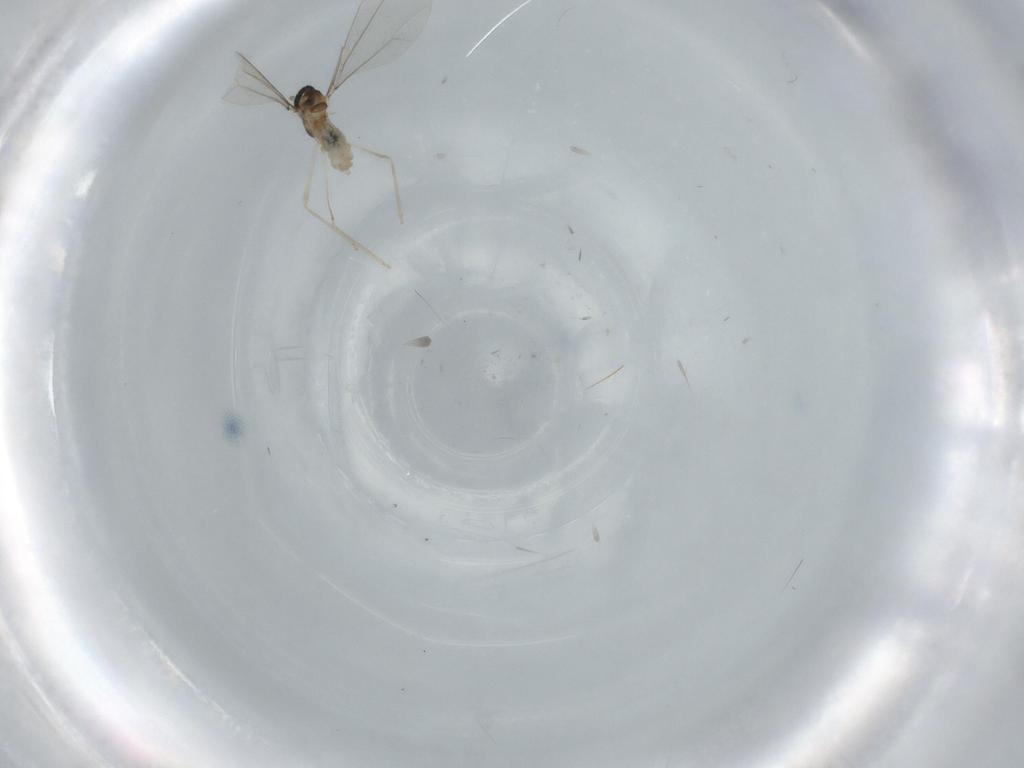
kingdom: Animalia
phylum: Arthropoda
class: Insecta
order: Diptera
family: Cecidomyiidae
